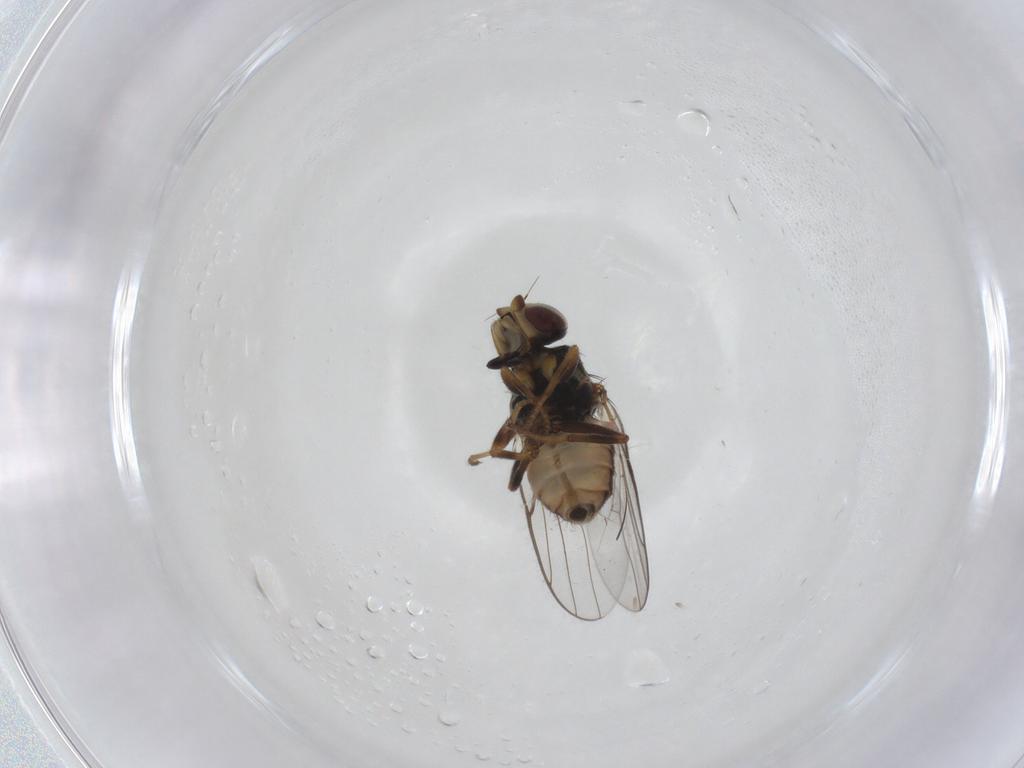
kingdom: Animalia
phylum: Arthropoda
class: Insecta
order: Diptera
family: Chloropidae
